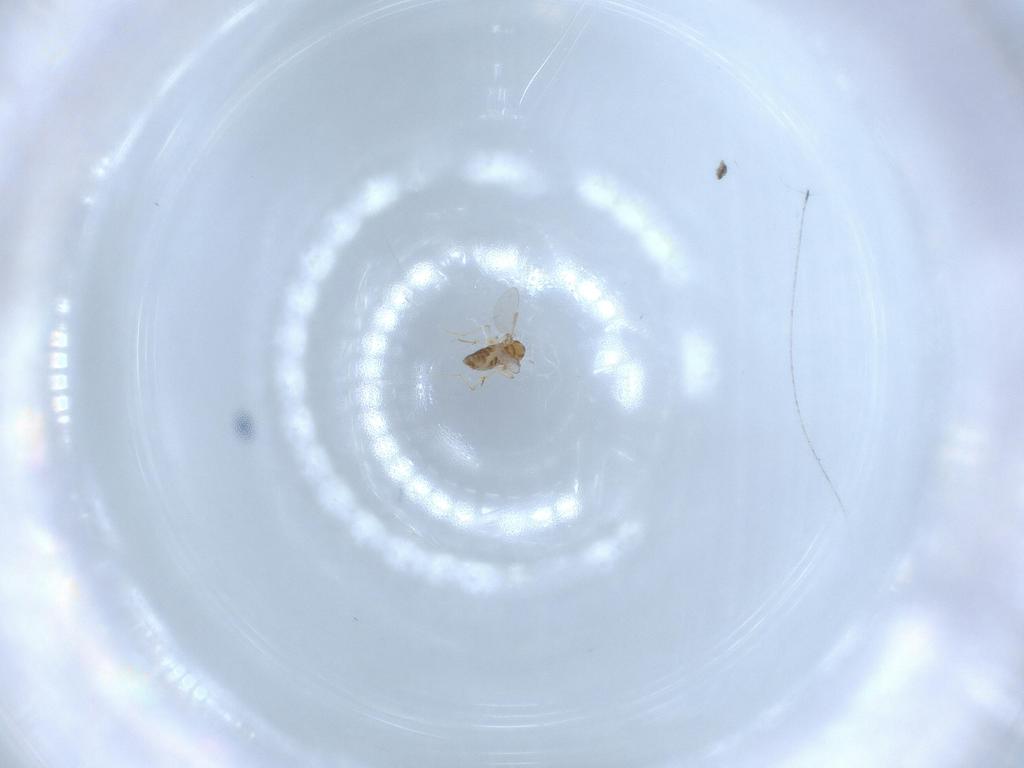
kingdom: Animalia
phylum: Arthropoda
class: Insecta
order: Diptera
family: Chironomidae
